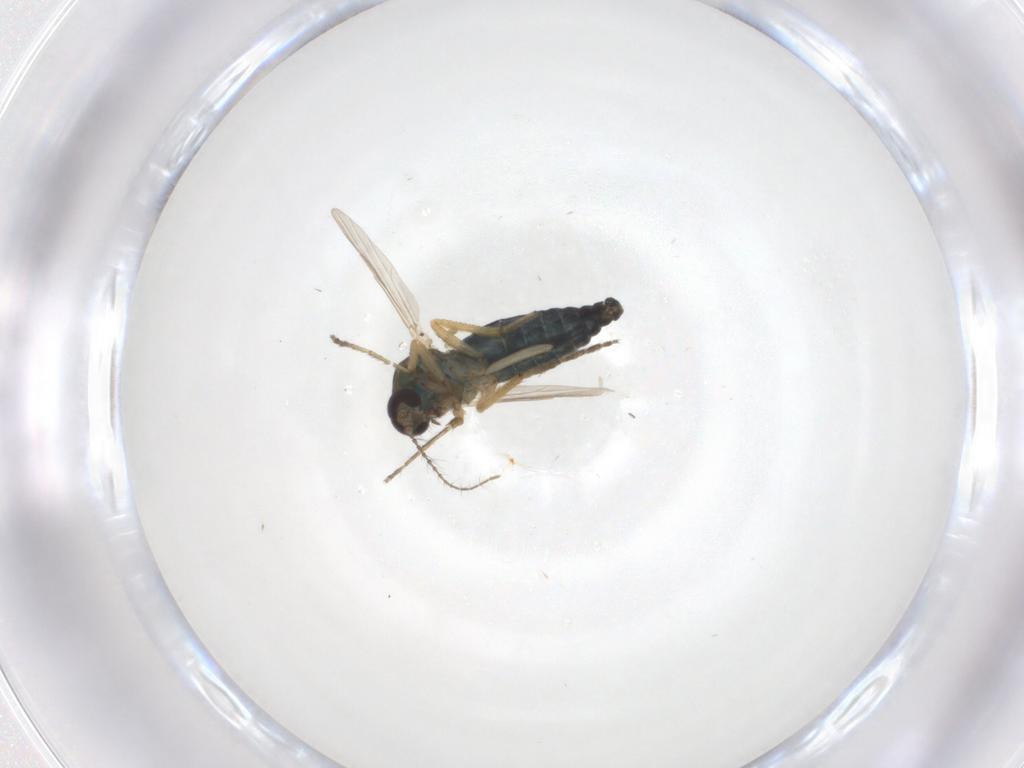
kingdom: Animalia
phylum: Arthropoda
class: Insecta
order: Diptera
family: Ceratopogonidae
